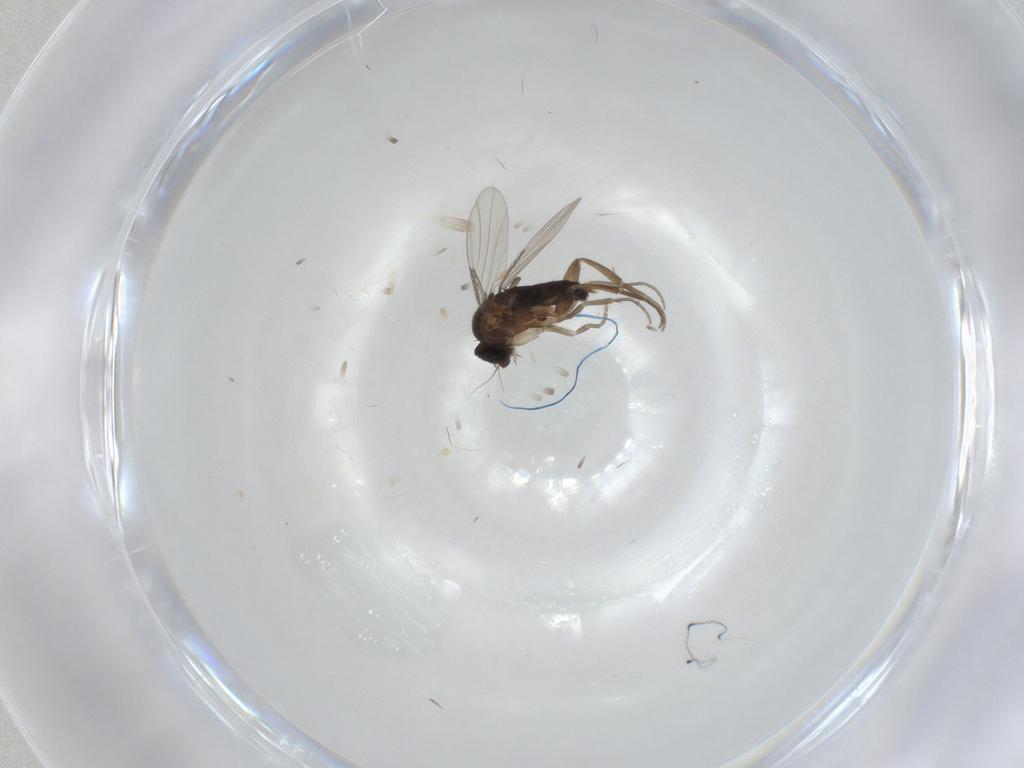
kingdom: Animalia
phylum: Arthropoda
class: Insecta
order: Diptera
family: Phoridae
